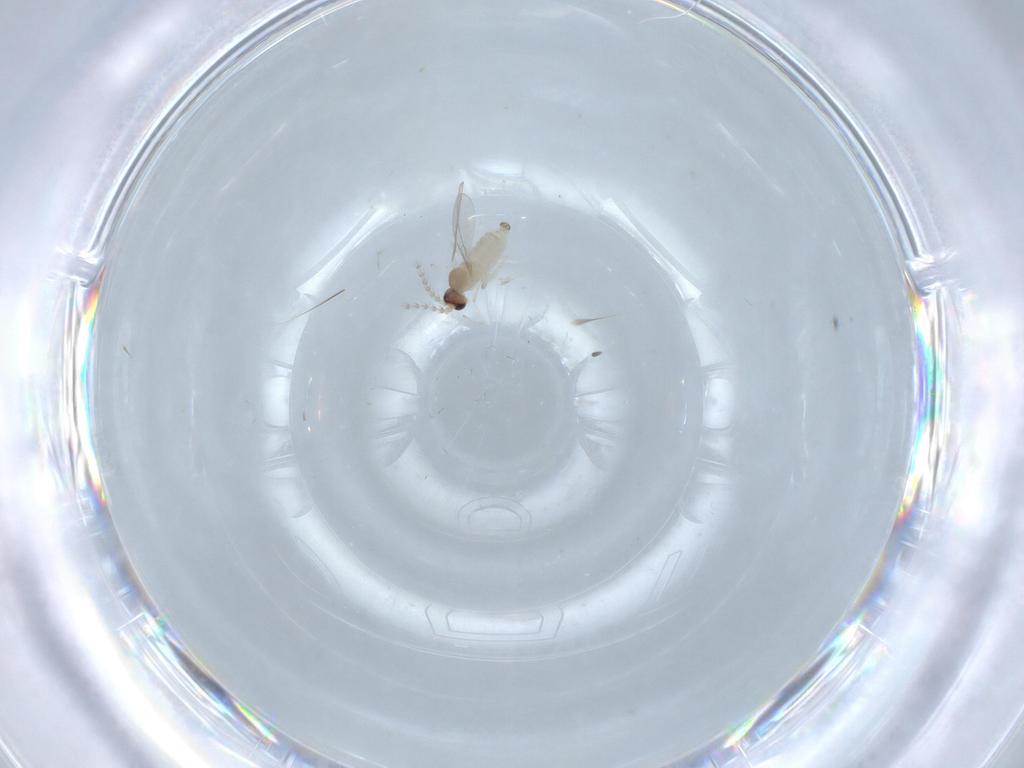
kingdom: Animalia
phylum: Arthropoda
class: Insecta
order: Diptera
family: Cecidomyiidae
